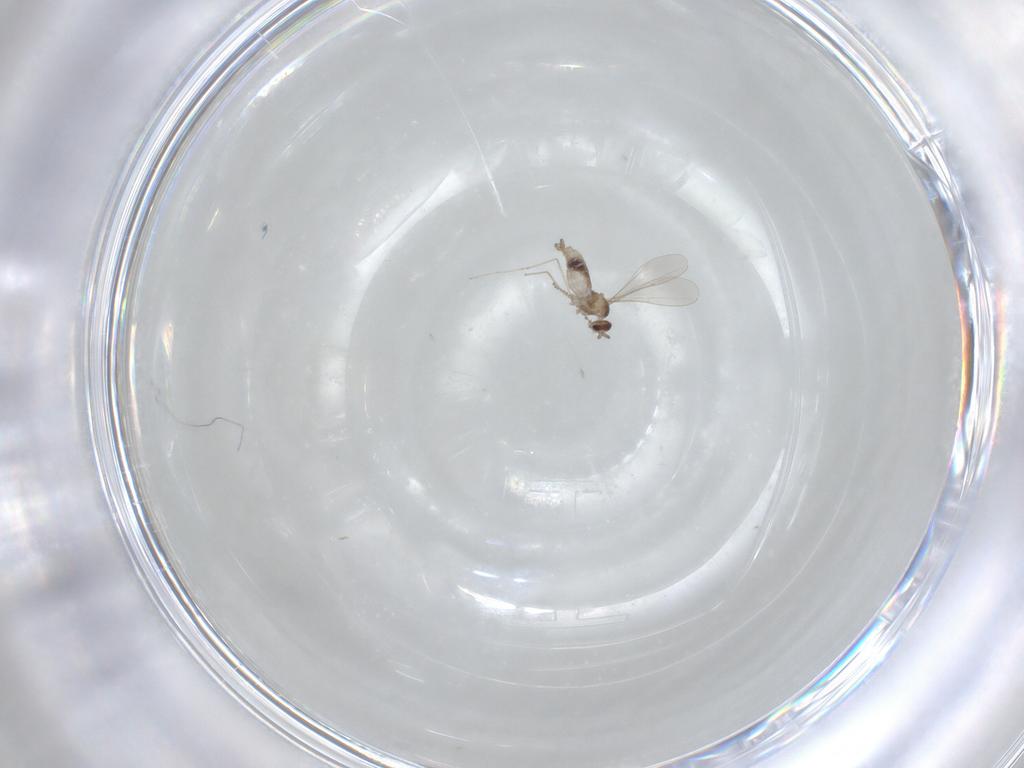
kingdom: Animalia
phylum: Arthropoda
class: Insecta
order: Diptera
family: Cecidomyiidae
